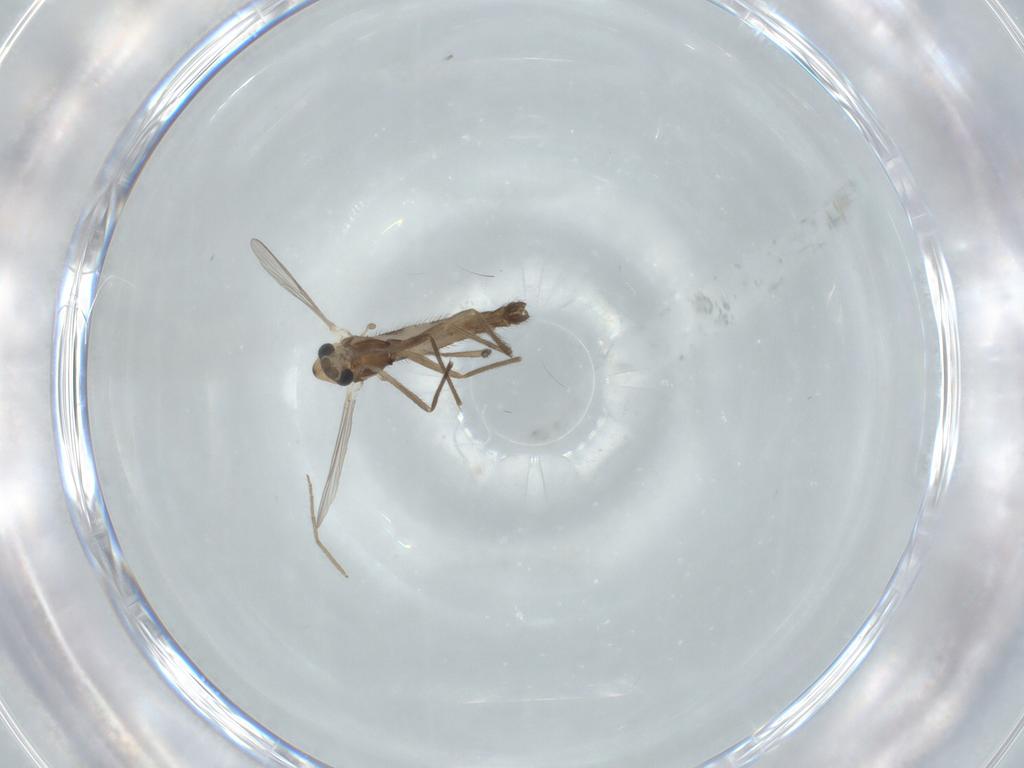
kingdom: Animalia
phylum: Arthropoda
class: Insecta
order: Diptera
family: Chironomidae
